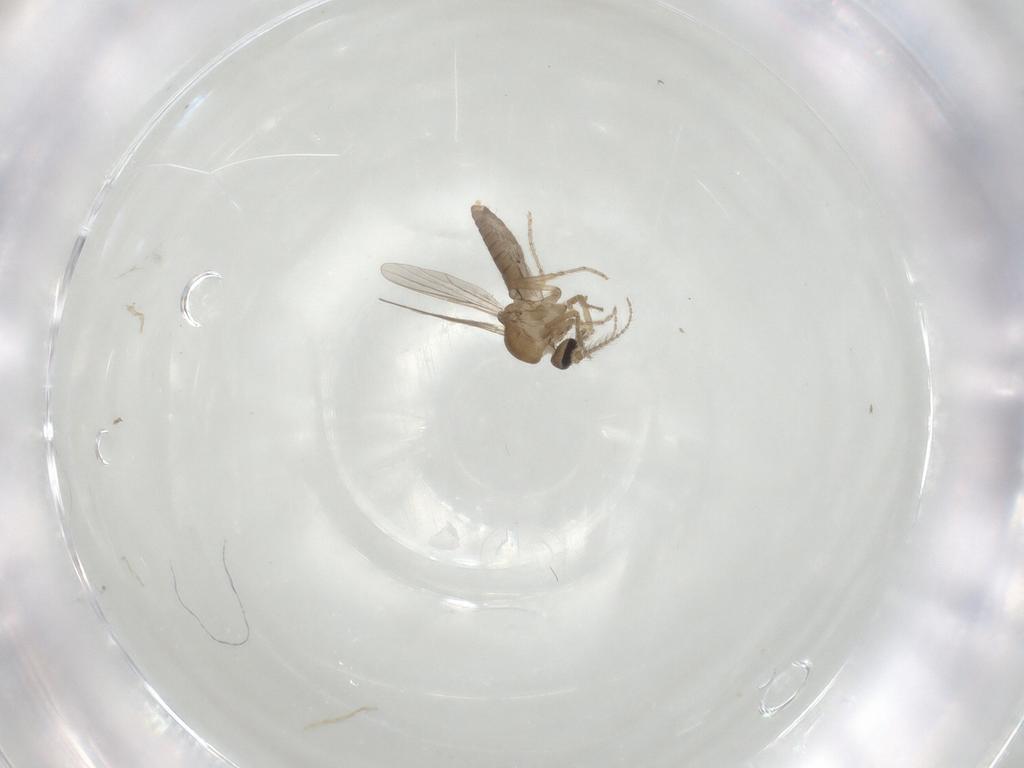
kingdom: Animalia
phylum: Arthropoda
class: Insecta
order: Diptera
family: Ceratopogonidae
